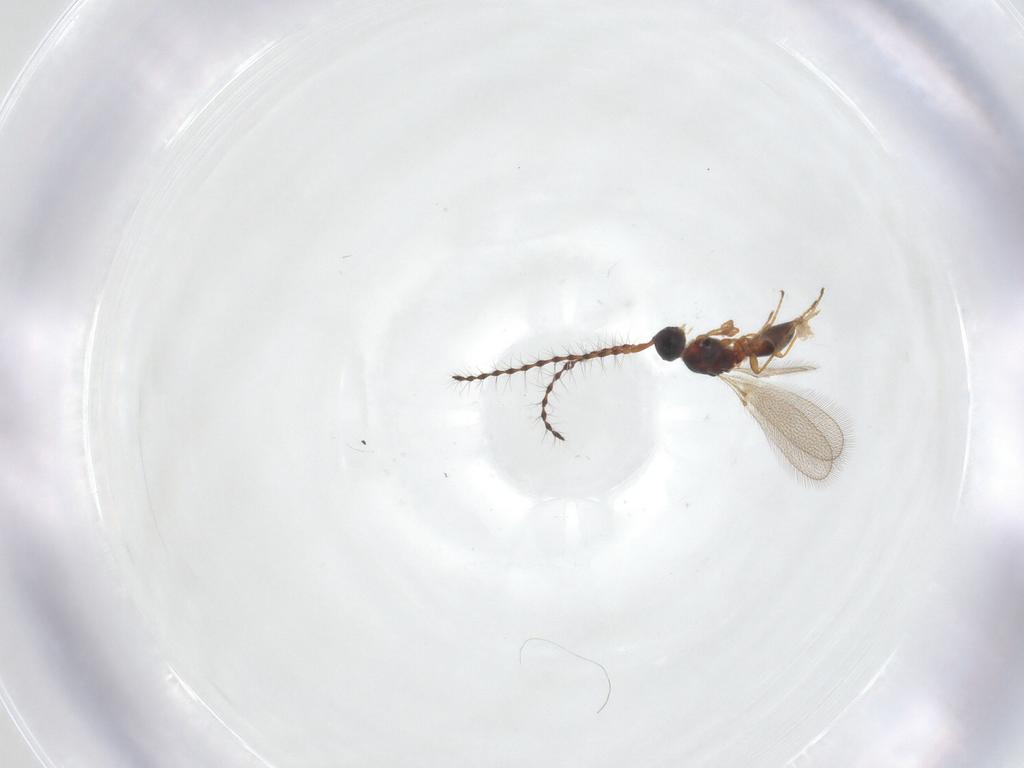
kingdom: Animalia
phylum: Arthropoda
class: Insecta
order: Hymenoptera
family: Diapriidae
